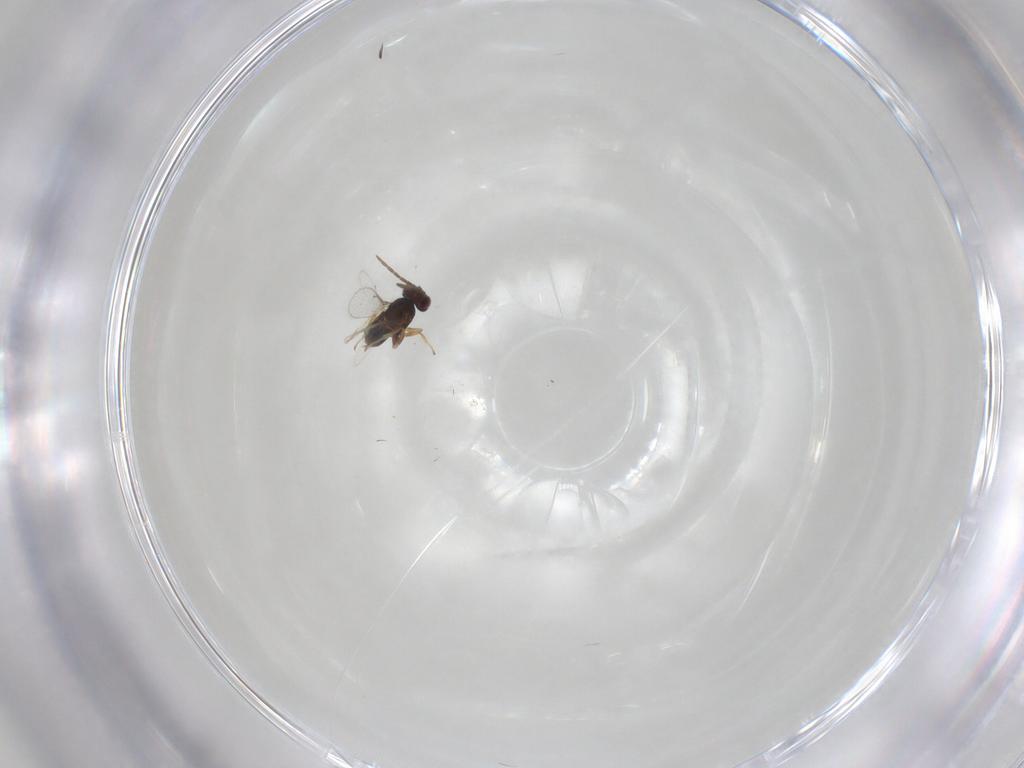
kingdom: Animalia
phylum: Arthropoda
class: Insecta
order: Hymenoptera
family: Aphelinidae
